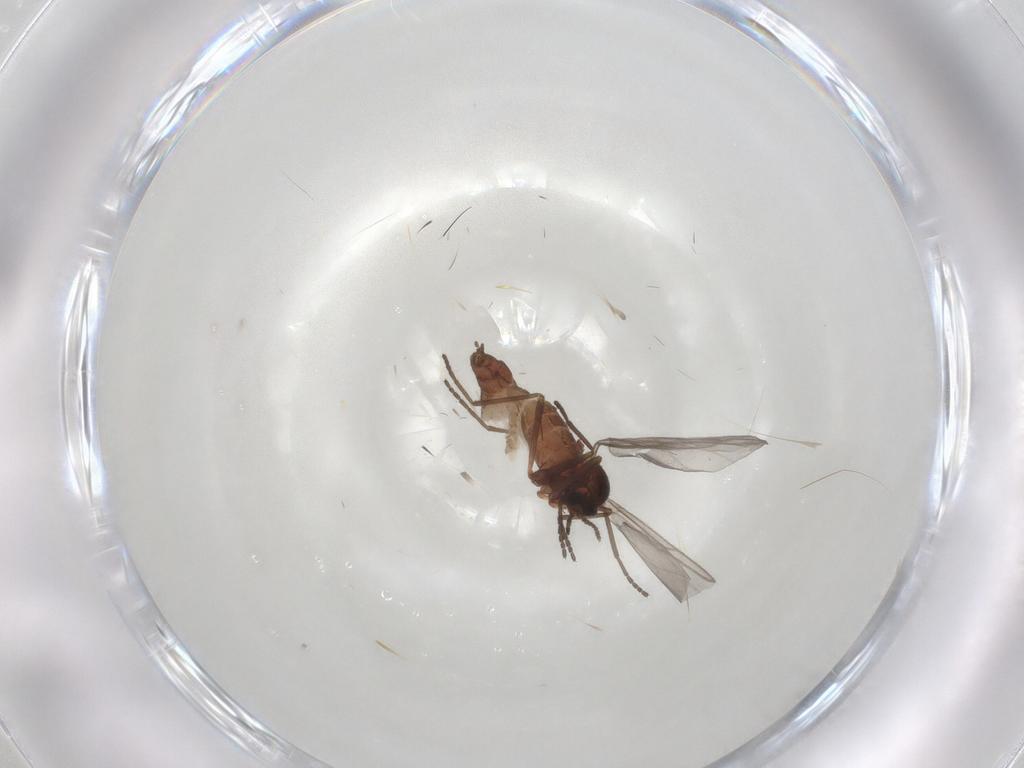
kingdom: Animalia
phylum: Arthropoda
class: Insecta
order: Diptera
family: Cecidomyiidae
